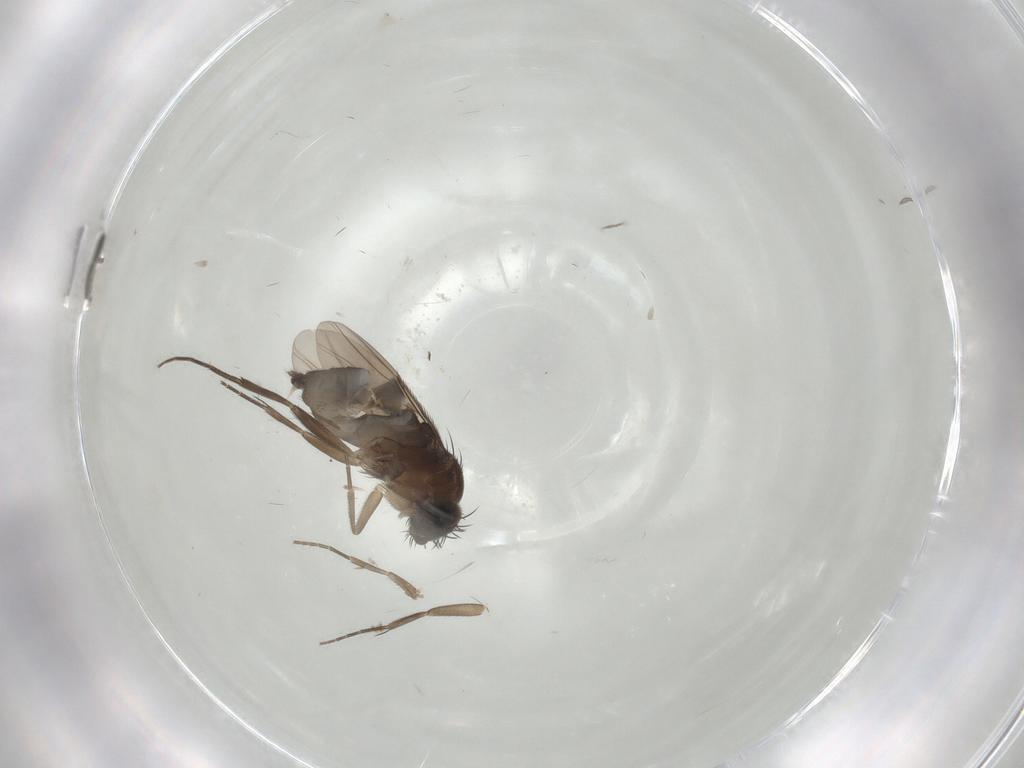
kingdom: Animalia
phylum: Arthropoda
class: Insecta
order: Diptera
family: Phoridae
